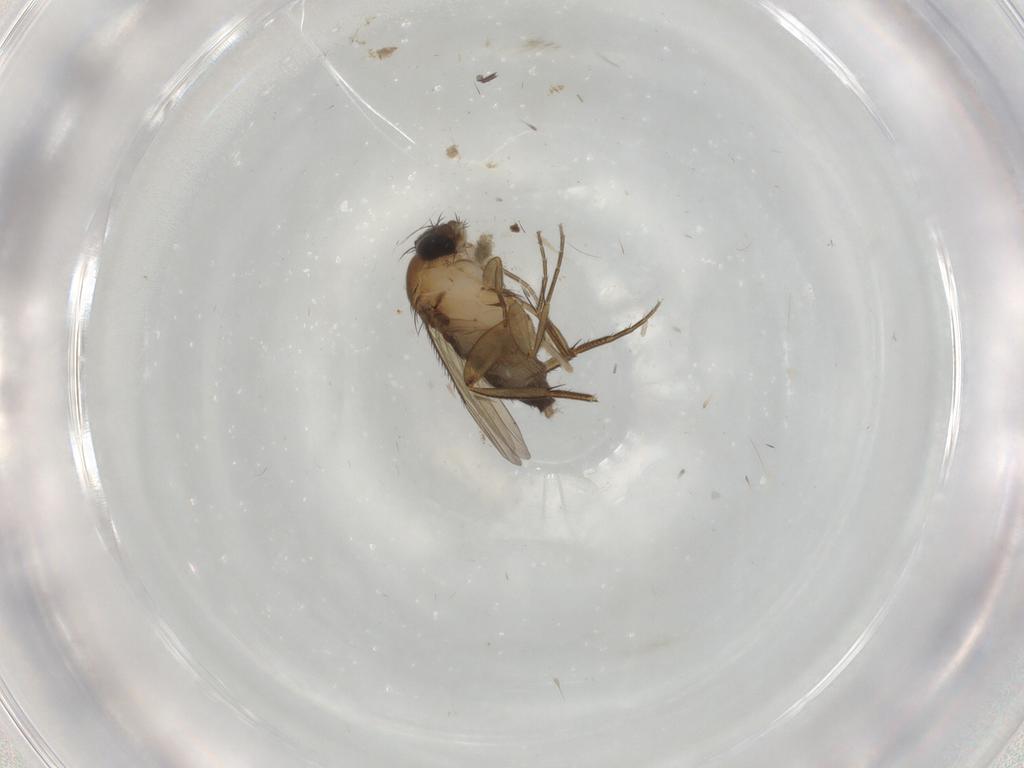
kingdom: Animalia
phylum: Arthropoda
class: Insecta
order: Diptera
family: Phoridae
